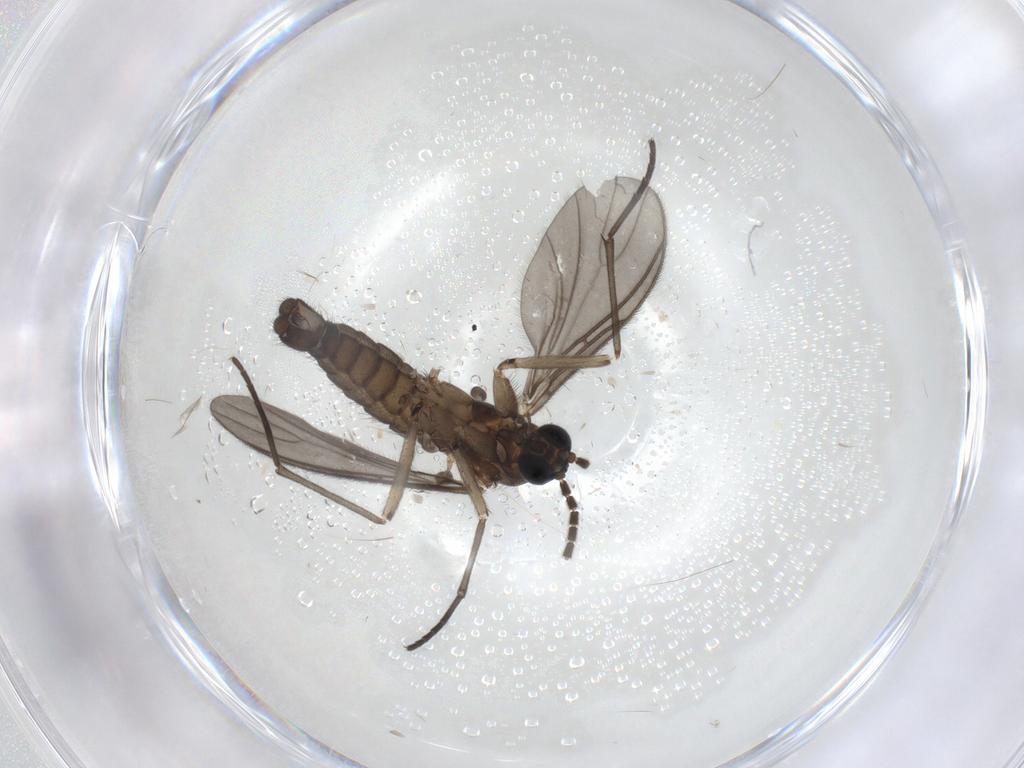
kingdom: Animalia
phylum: Arthropoda
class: Insecta
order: Diptera
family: Sciaridae
